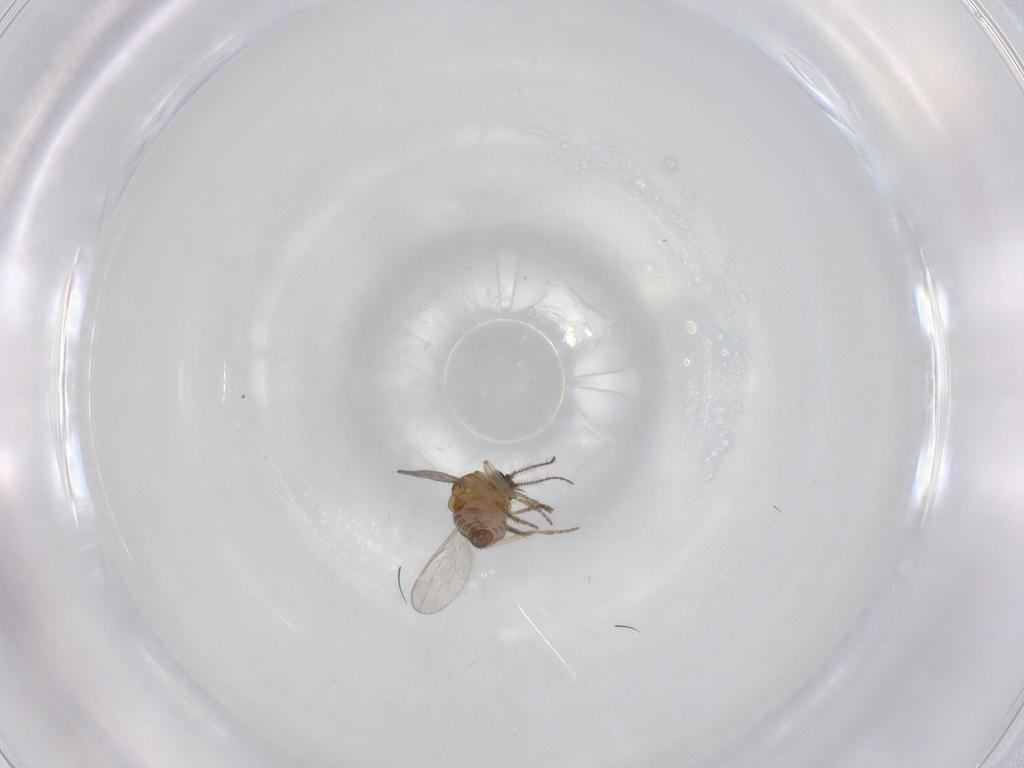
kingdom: Animalia
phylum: Arthropoda
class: Insecta
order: Diptera
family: Ceratopogonidae
